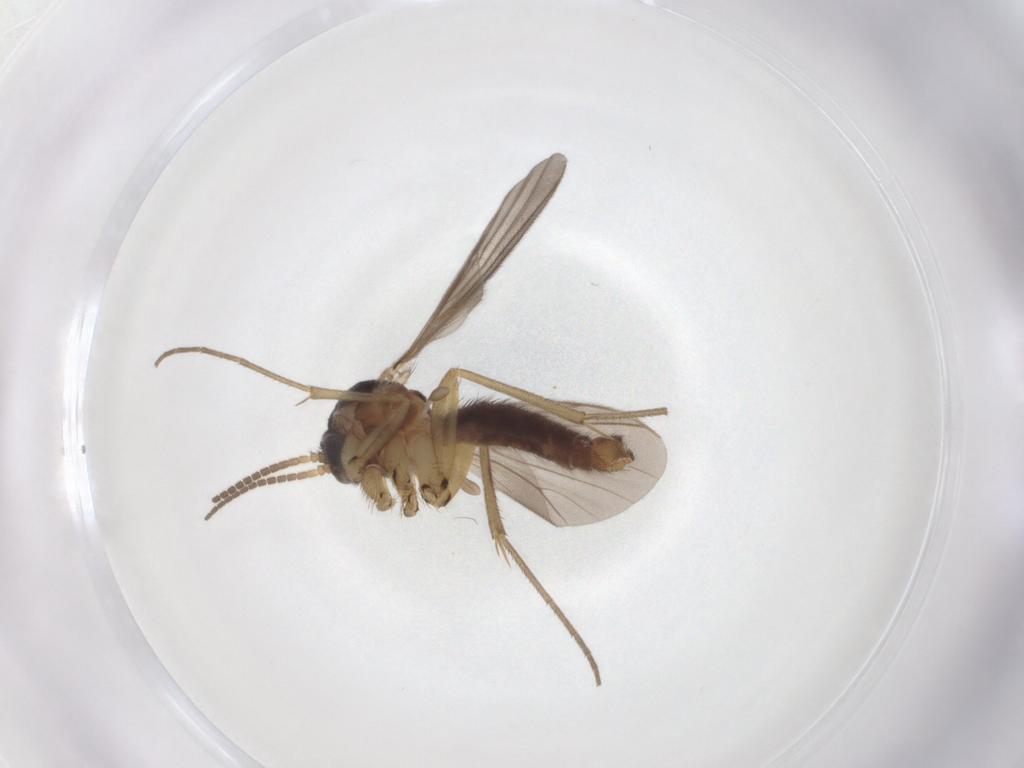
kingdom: Animalia
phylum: Arthropoda
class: Insecta
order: Diptera
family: Mycetophilidae
